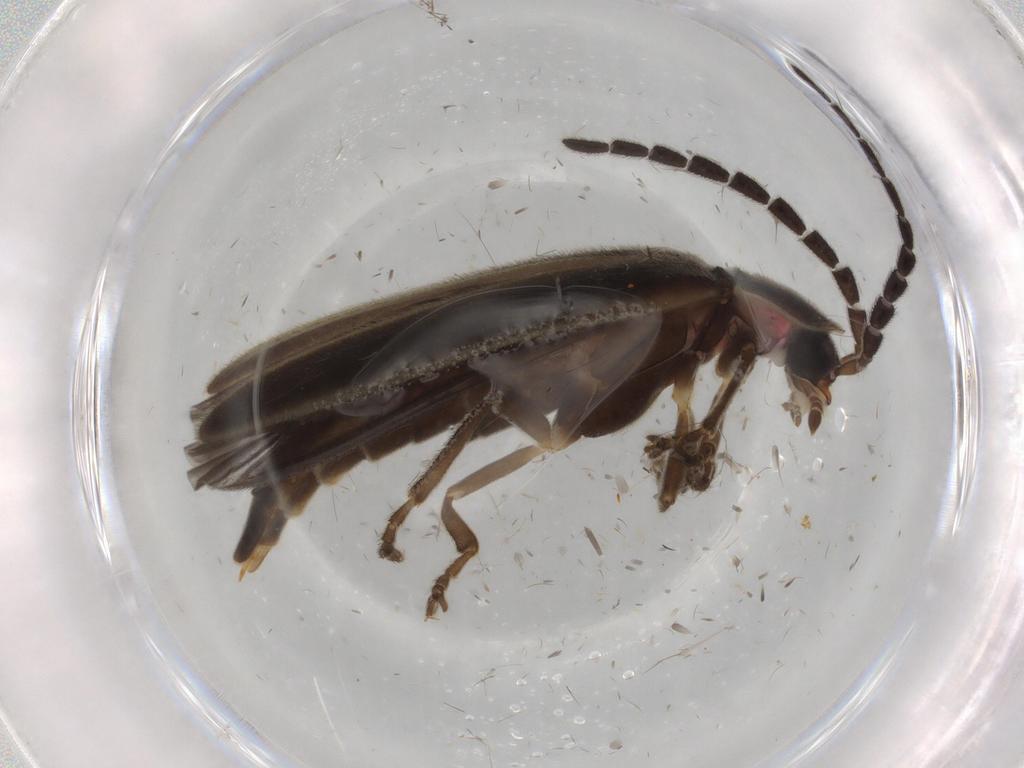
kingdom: Animalia
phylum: Arthropoda
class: Insecta
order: Coleoptera
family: Lampyridae
